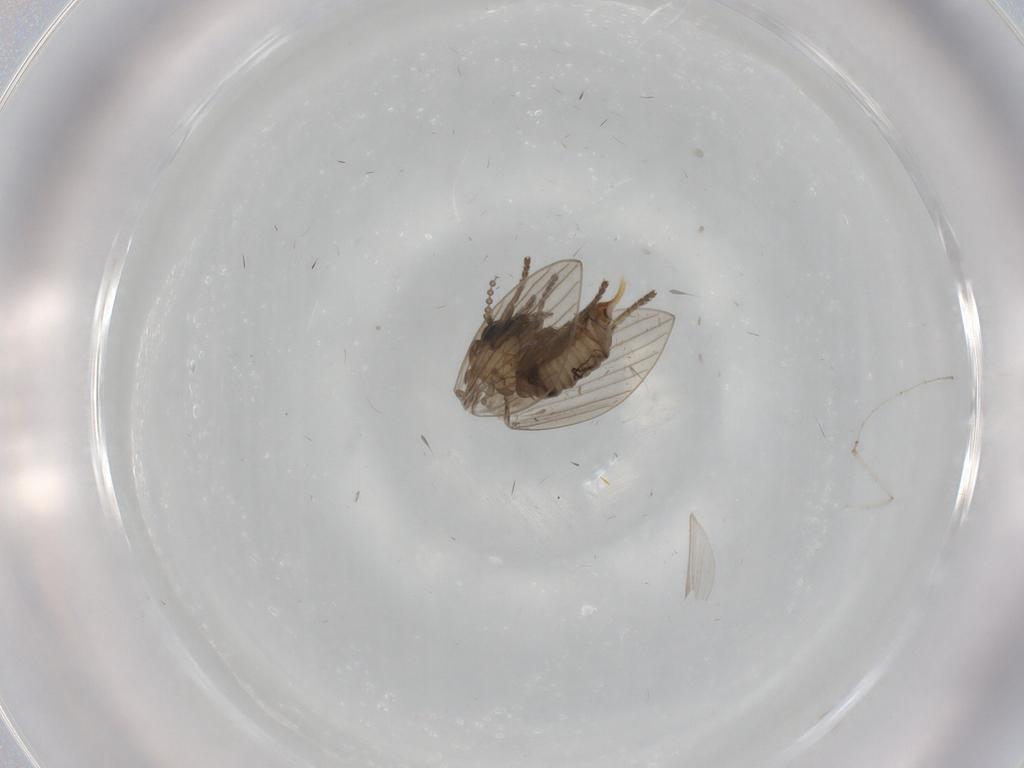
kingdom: Animalia
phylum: Arthropoda
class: Insecta
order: Diptera
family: Psychodidae
